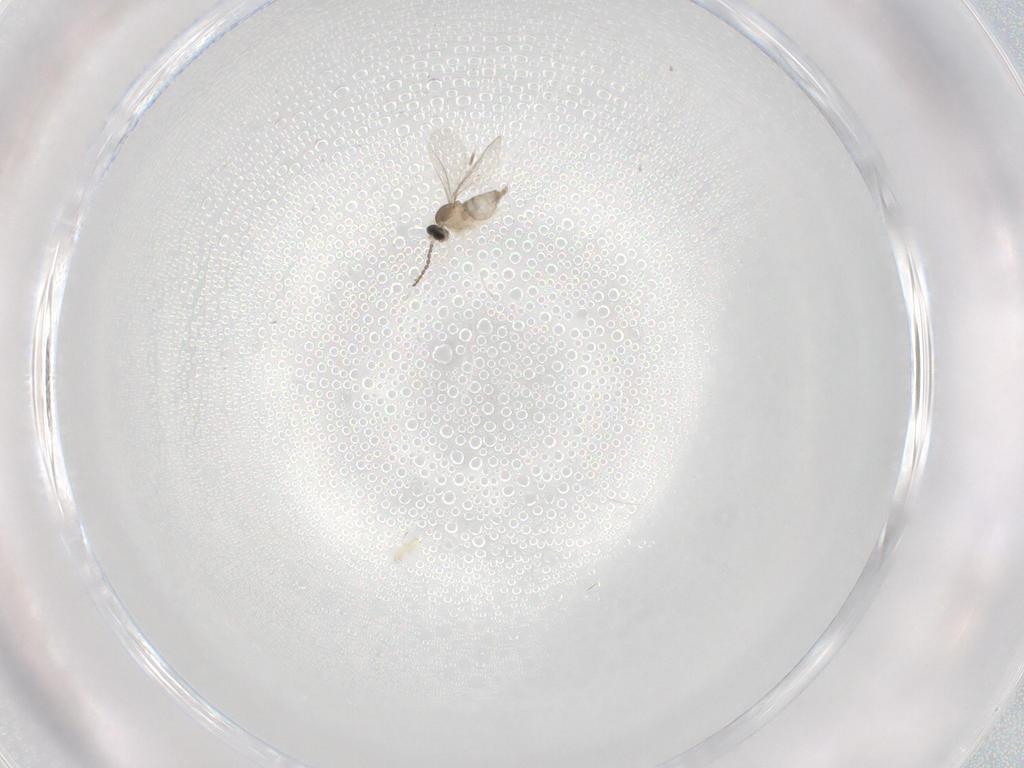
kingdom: Animalia
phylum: Arthropoda
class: Insecta
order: Diptera
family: Cecidomyiidae
